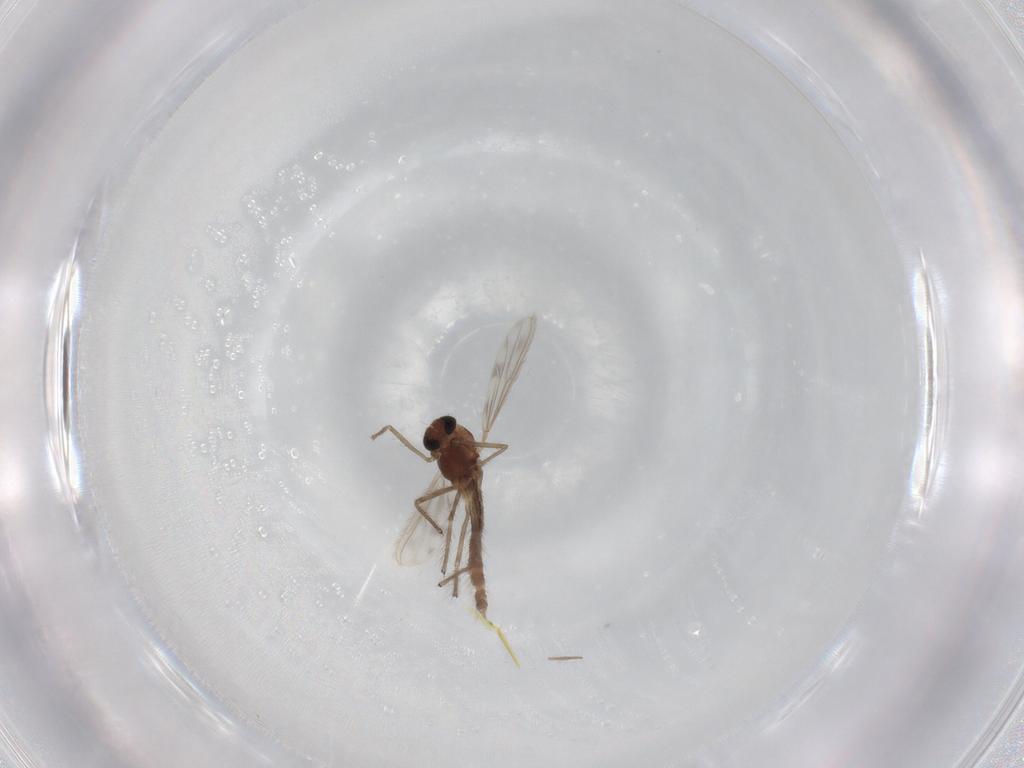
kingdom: Animalia
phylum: Arthropoda
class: Insecta
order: Diptera
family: Chironomidae
